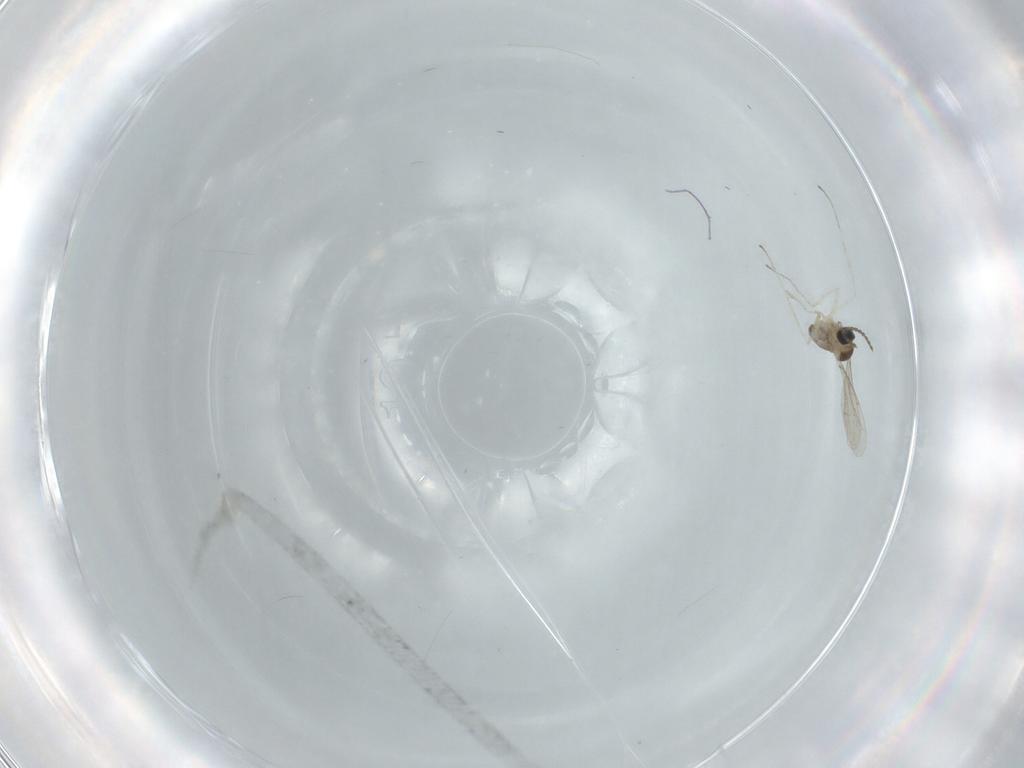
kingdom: Animalia
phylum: Arthropoda
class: Insecta
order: Diptera
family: Cecidomyiidae
